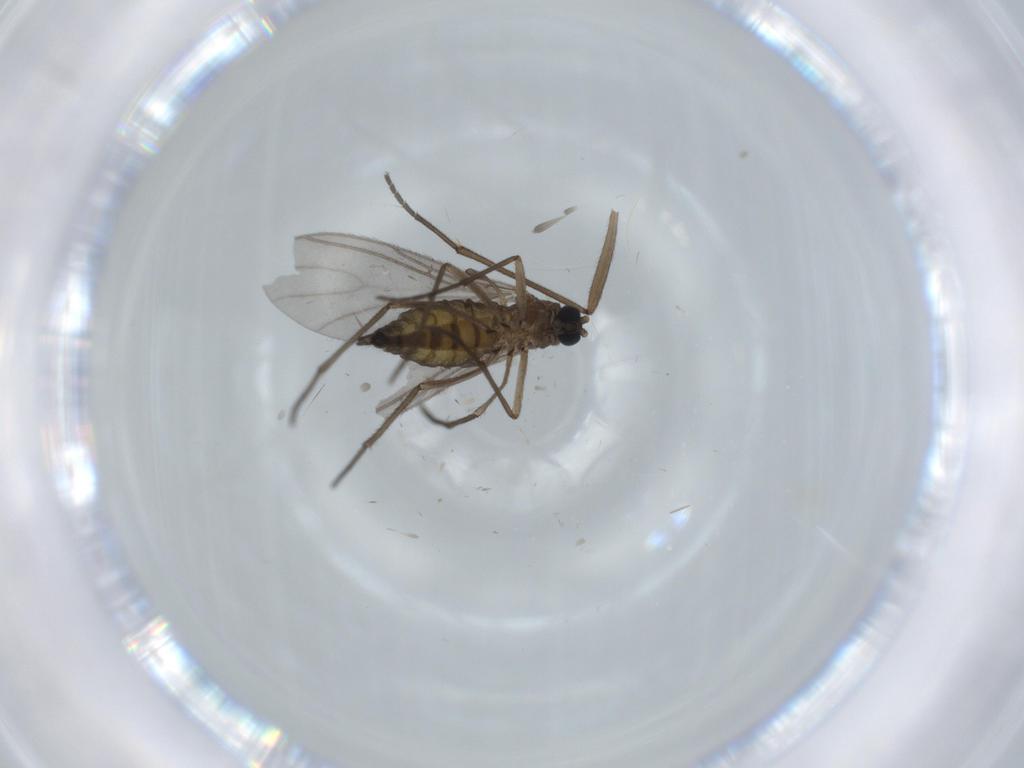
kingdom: Animalia
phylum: Arthropoda
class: Insecta
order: Diptera
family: Sciaridae
